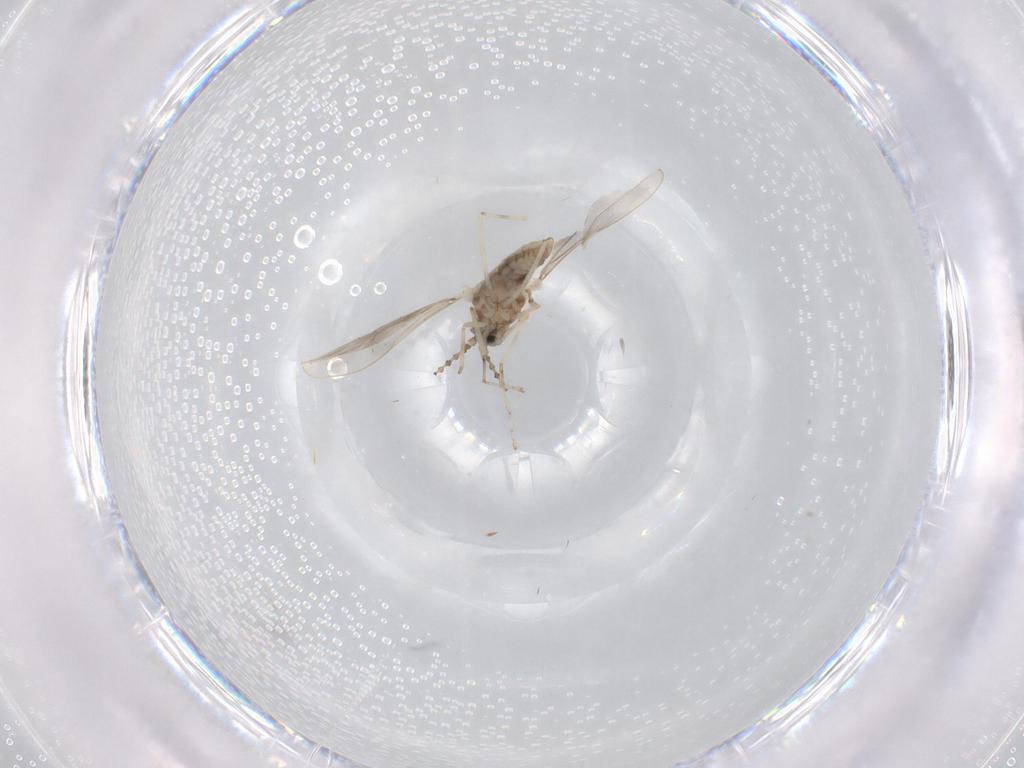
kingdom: Animalia
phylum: Arthropoda
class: Insecta
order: Diptera
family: Cecidomyiidae
